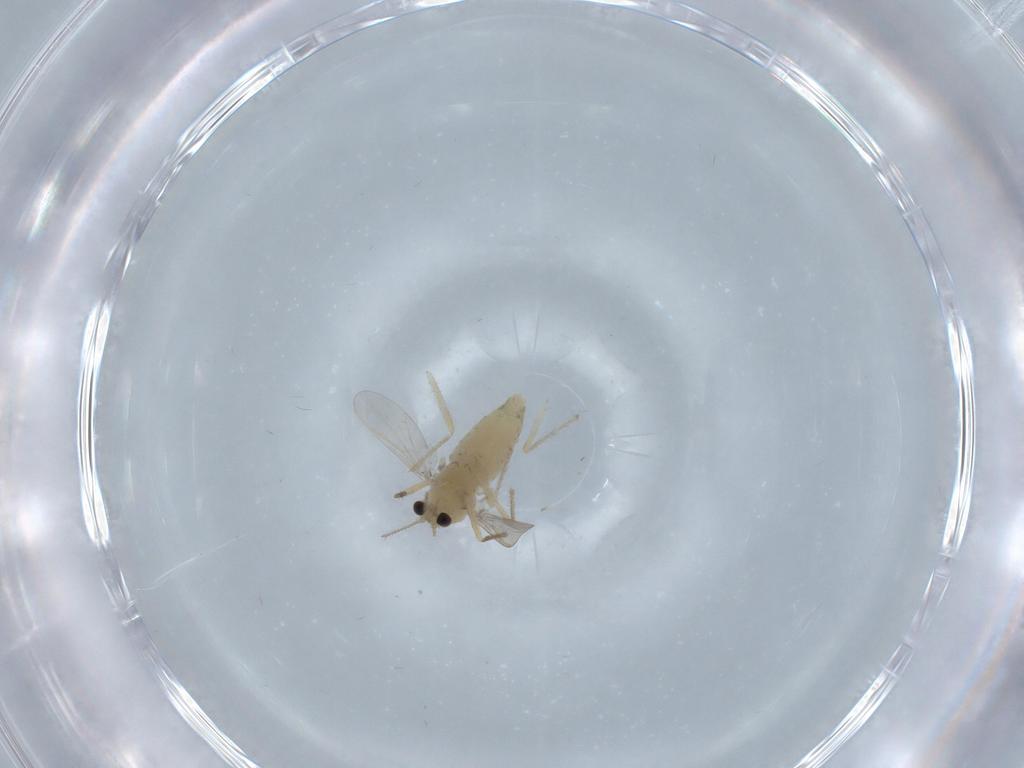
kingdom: Animalia
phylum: Arthropoda
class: Insecta
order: Diptera
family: Chironomidae
